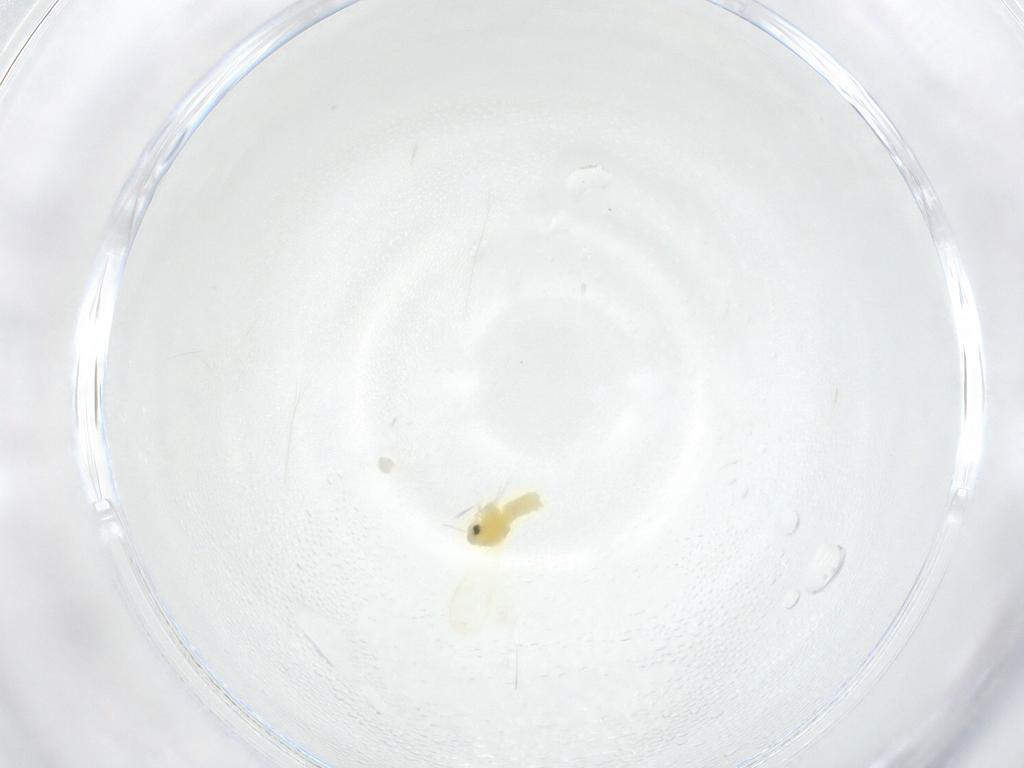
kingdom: Animalia
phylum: Arthropoda
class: Insecta
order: Hemiptera
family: Aleyrodidae
